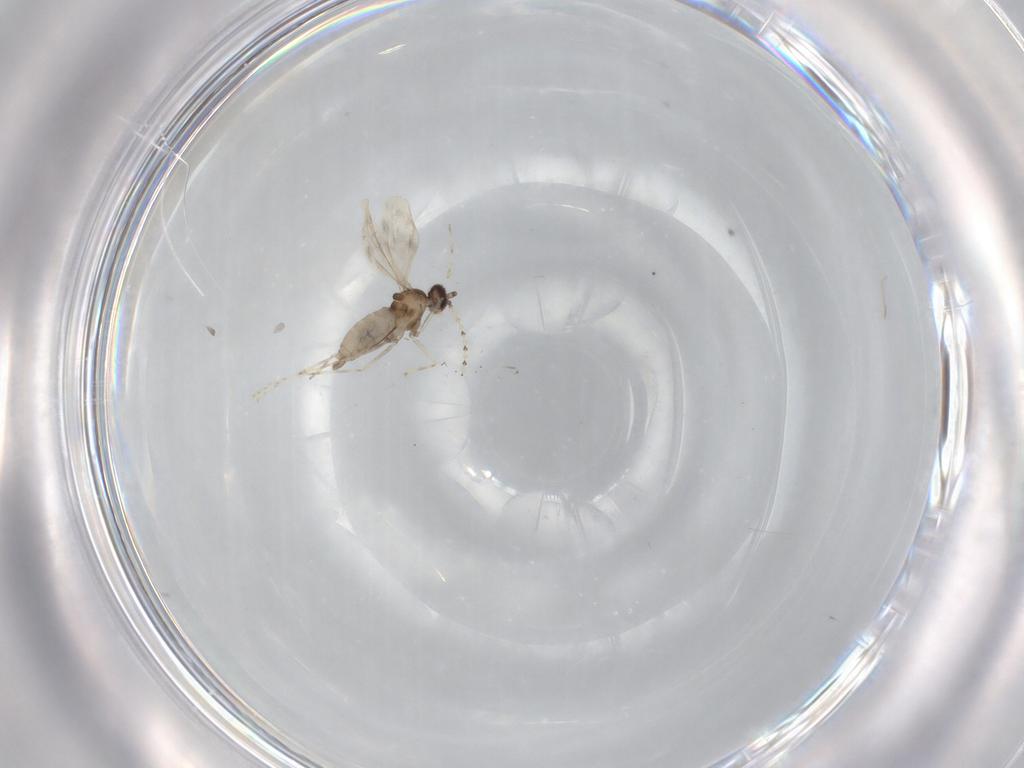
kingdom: Animalia
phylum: Arthropoda
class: Insecta
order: Diptera
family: Cecidomyiidae
